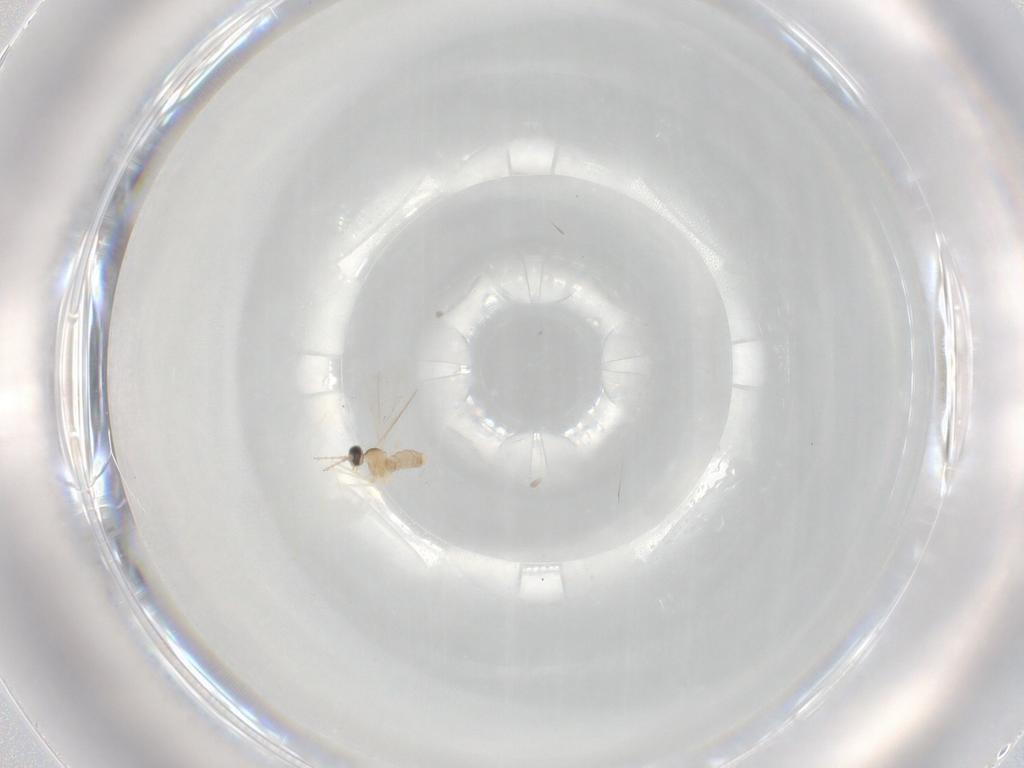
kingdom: Animalia
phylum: Arthropoda
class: Insecta
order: Diptera
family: Cecidomyiidae
